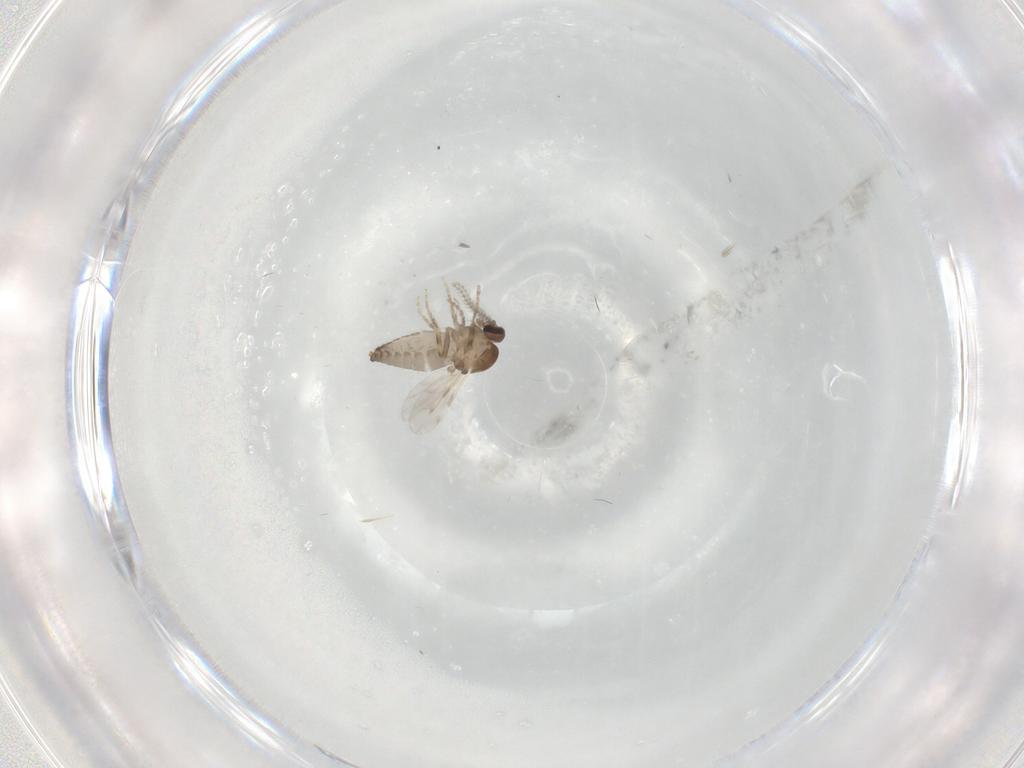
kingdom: Animalia
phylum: Arthropoda
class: Insecta
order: Diptera
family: Ceratopogonidae
